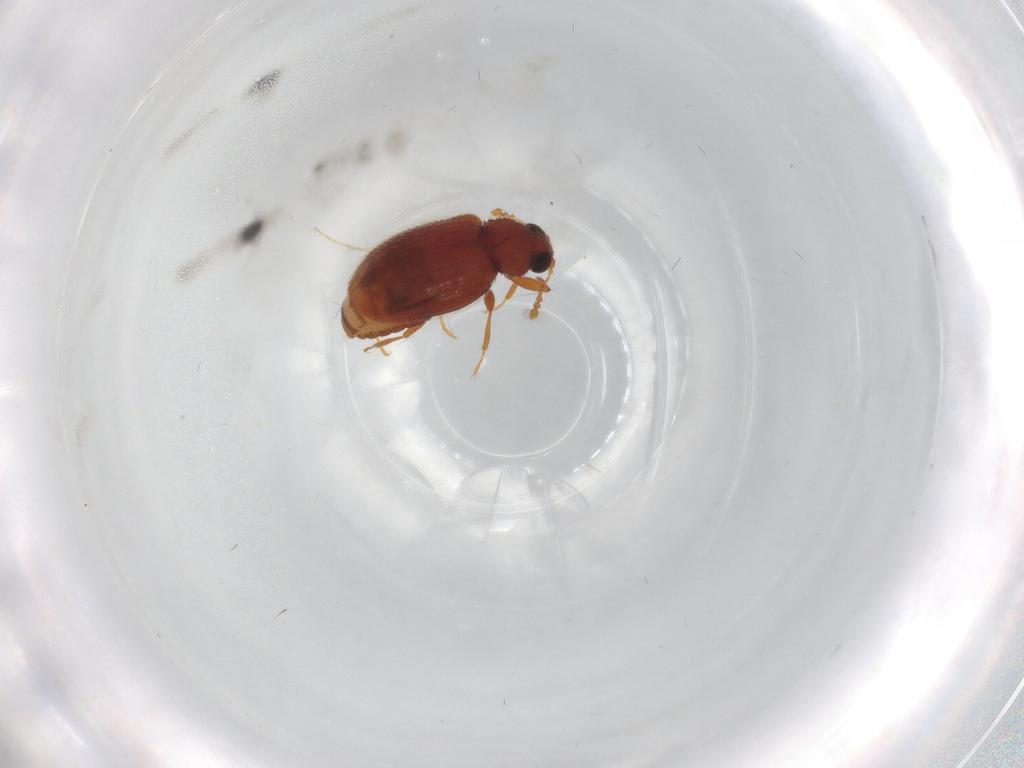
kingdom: Animalia
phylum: Arthropoda
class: Insecta
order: Coleoptera
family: Latridiidae
